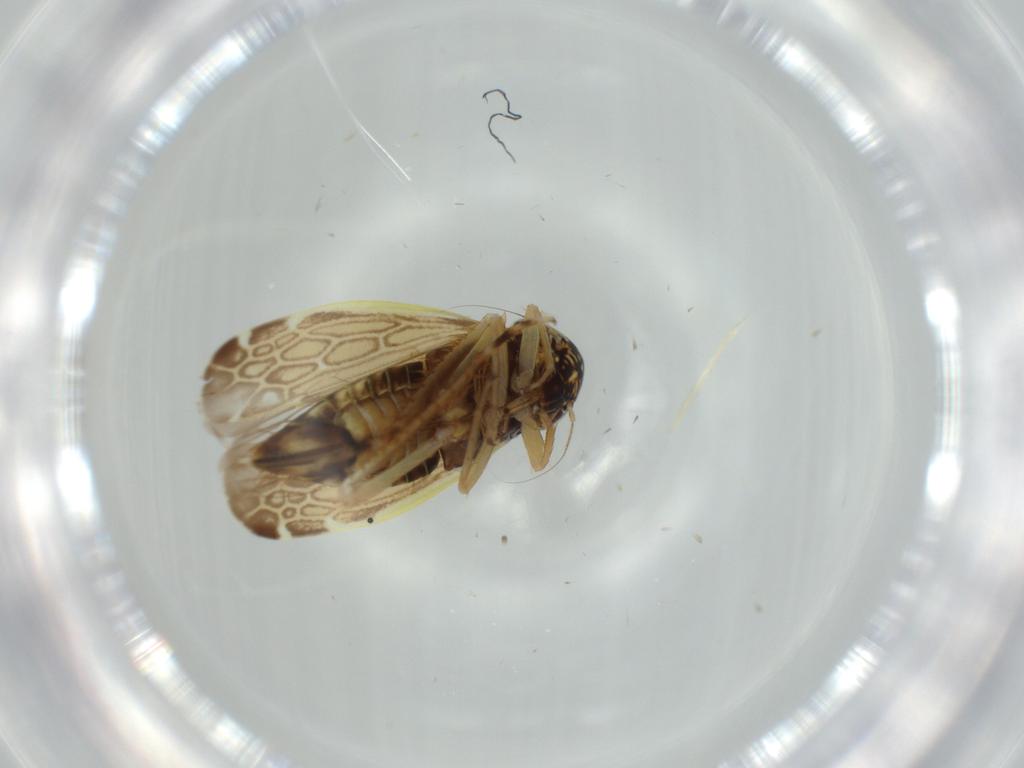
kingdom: Animalia
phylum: Arthropoda
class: Insecta
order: Hemiptera
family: Cicadellidae
